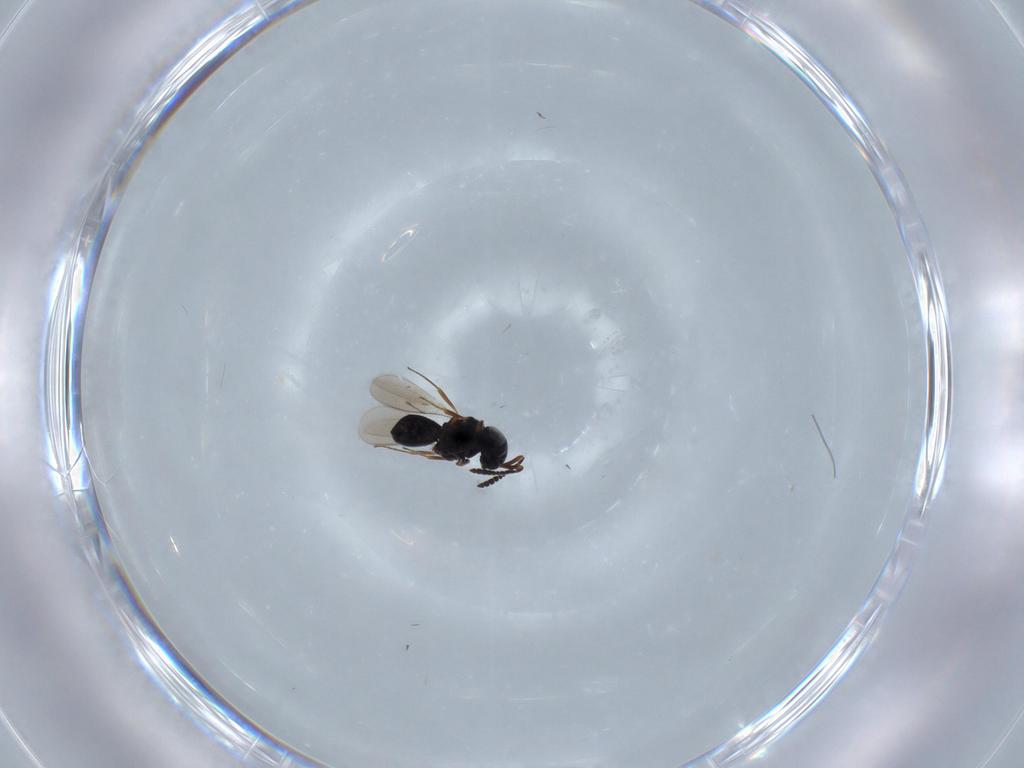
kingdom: Animalia
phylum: Arthropoda
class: Insecta
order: Hymenoptera
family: Scelionidae
